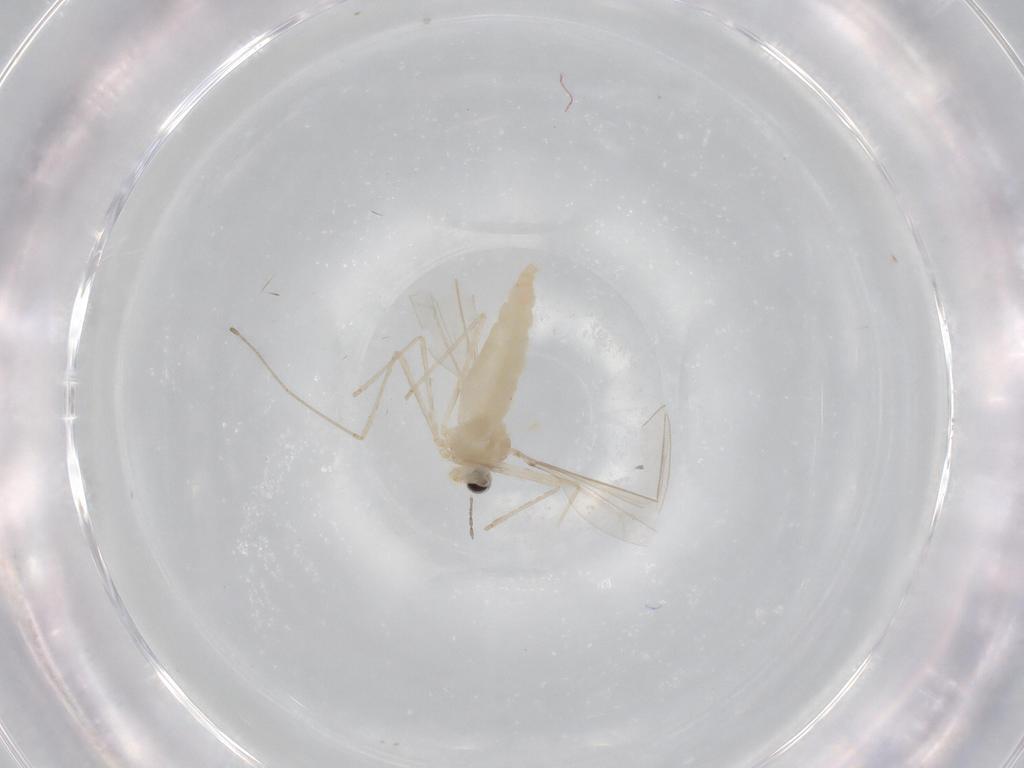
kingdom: Animalia
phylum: Arthropoda
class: Insecta
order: Diptera
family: Cecidomyiidae
